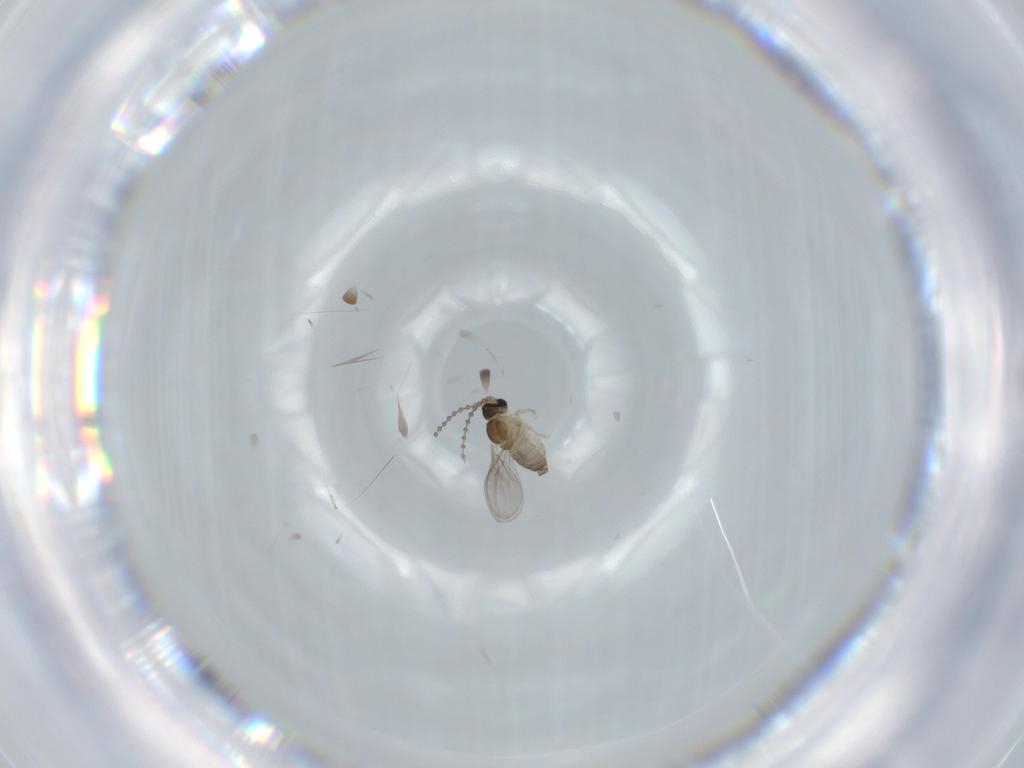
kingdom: Animalia
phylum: Arthropoda
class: Insecta
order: Diptera
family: Cecidomyiidae
